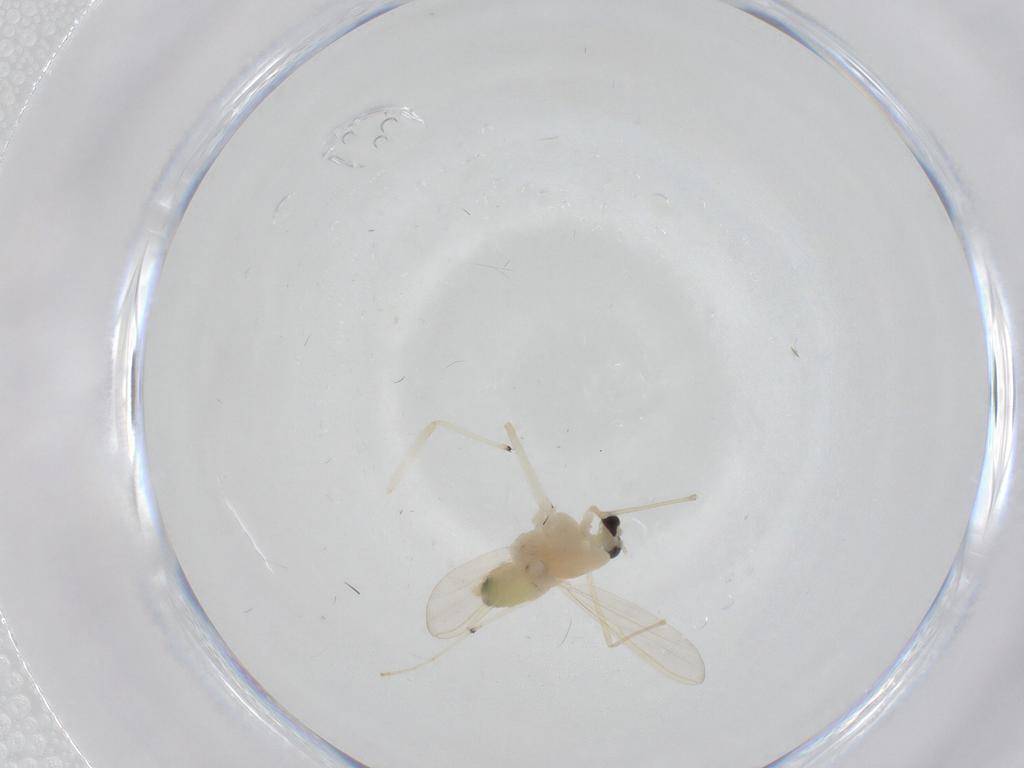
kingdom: Animalia
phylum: Arthropoda
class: Insecta
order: Diptera
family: Chironomidae
